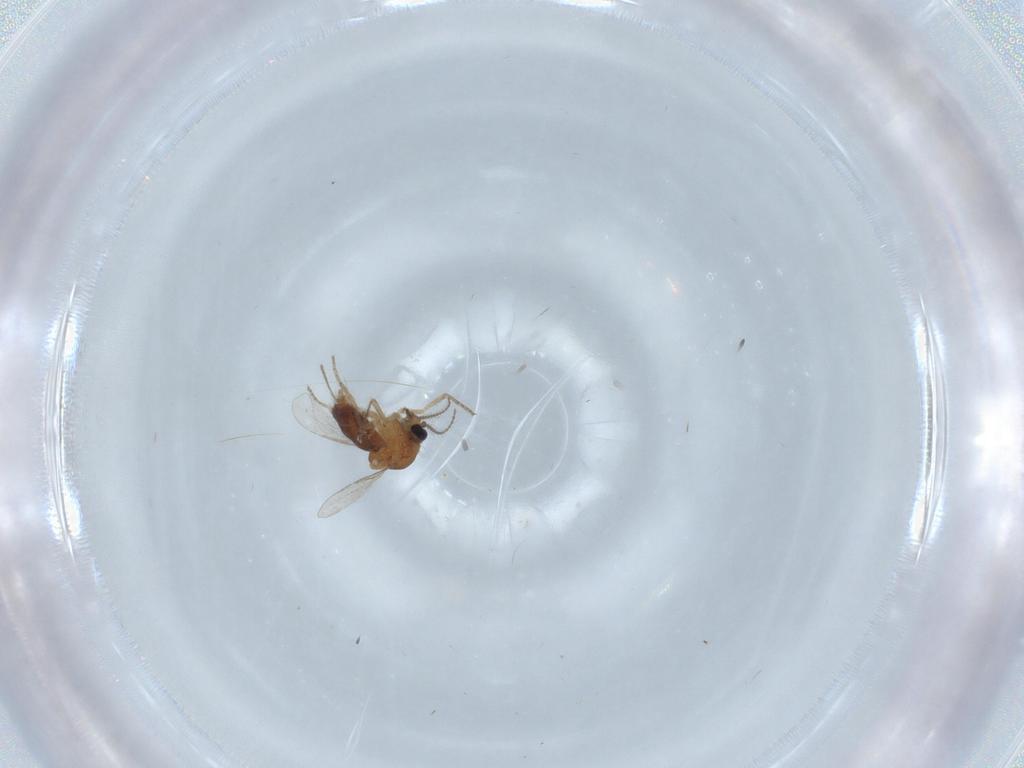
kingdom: Animalia
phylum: Arthropoda
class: Insecta
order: Diptera
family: Ceratopogonidae
